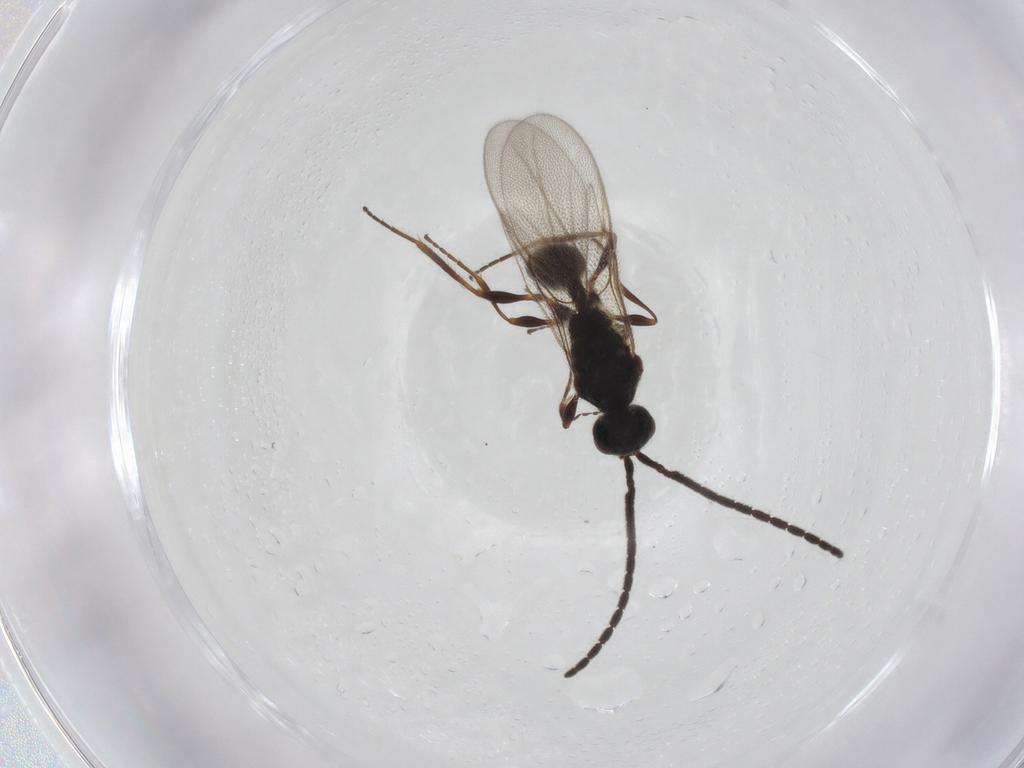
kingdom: Animalia
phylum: Arthropoda
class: Insecta
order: Hymenoptera
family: Diapriidae
